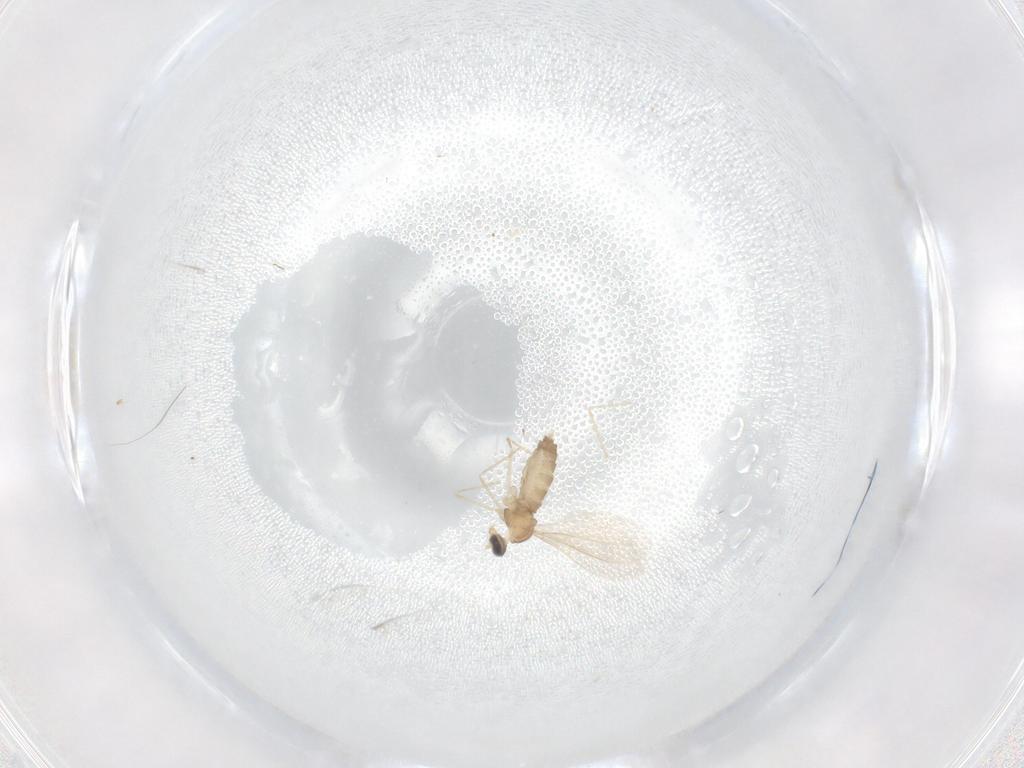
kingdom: Animalia
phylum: Arthropoda
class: Insecta
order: Diptera
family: Cecidomyiidae
